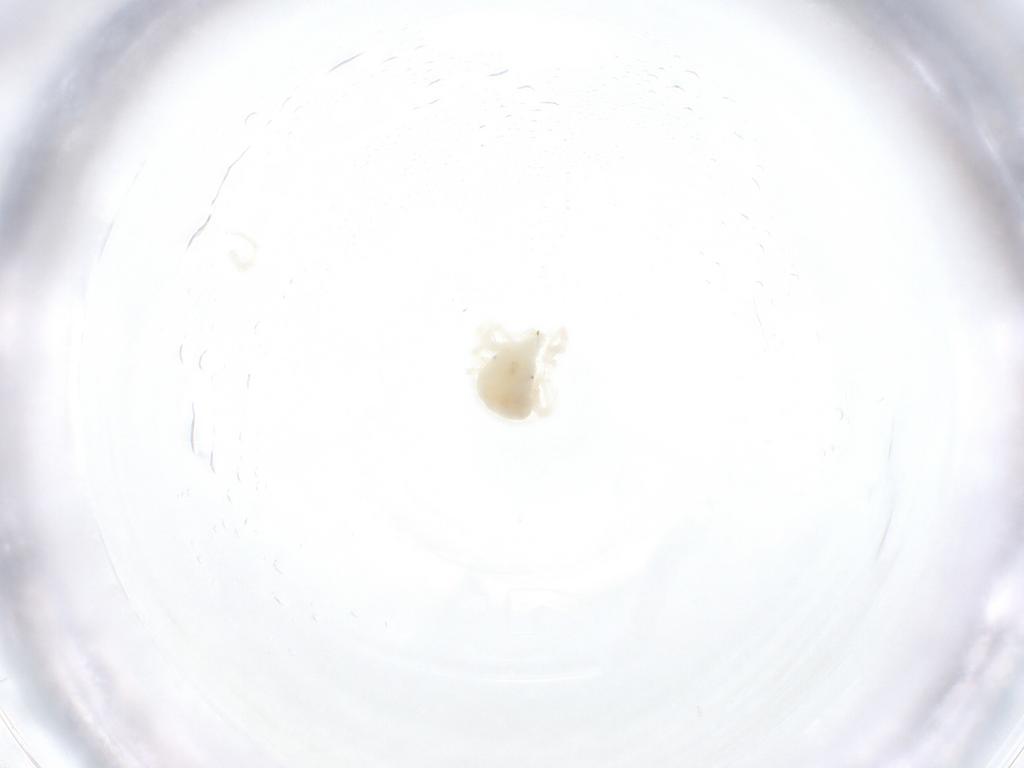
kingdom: Animalia
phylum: Arthropoda
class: Arachnida
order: Trombidiformes
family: Anystidae
